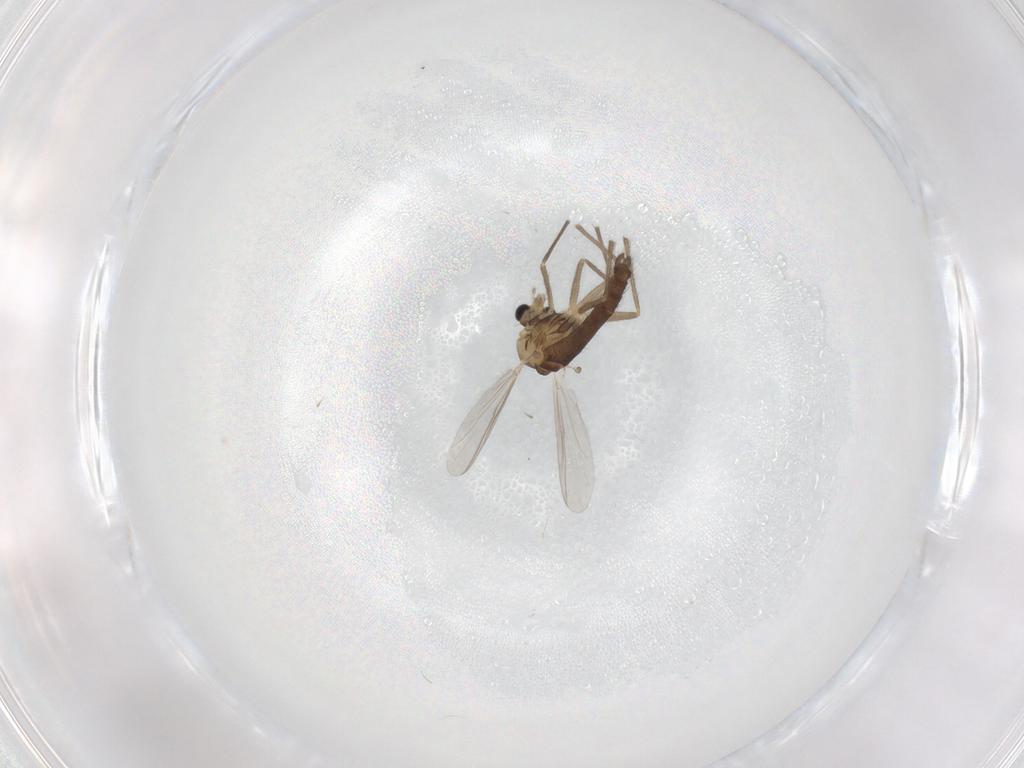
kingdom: Animalia
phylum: Arthropoda
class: Insecta
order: Diptera
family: Chironomidae
